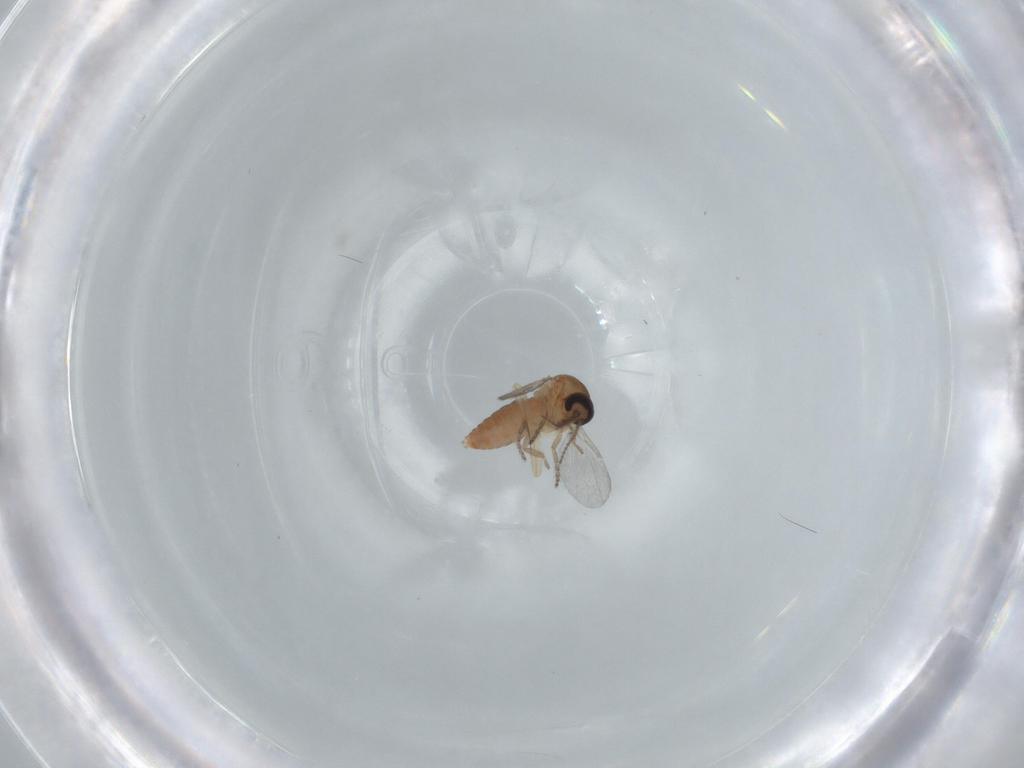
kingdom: Animalia
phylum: Arthropoda
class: Insecta
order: Diptera
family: Ceratopogonidae
